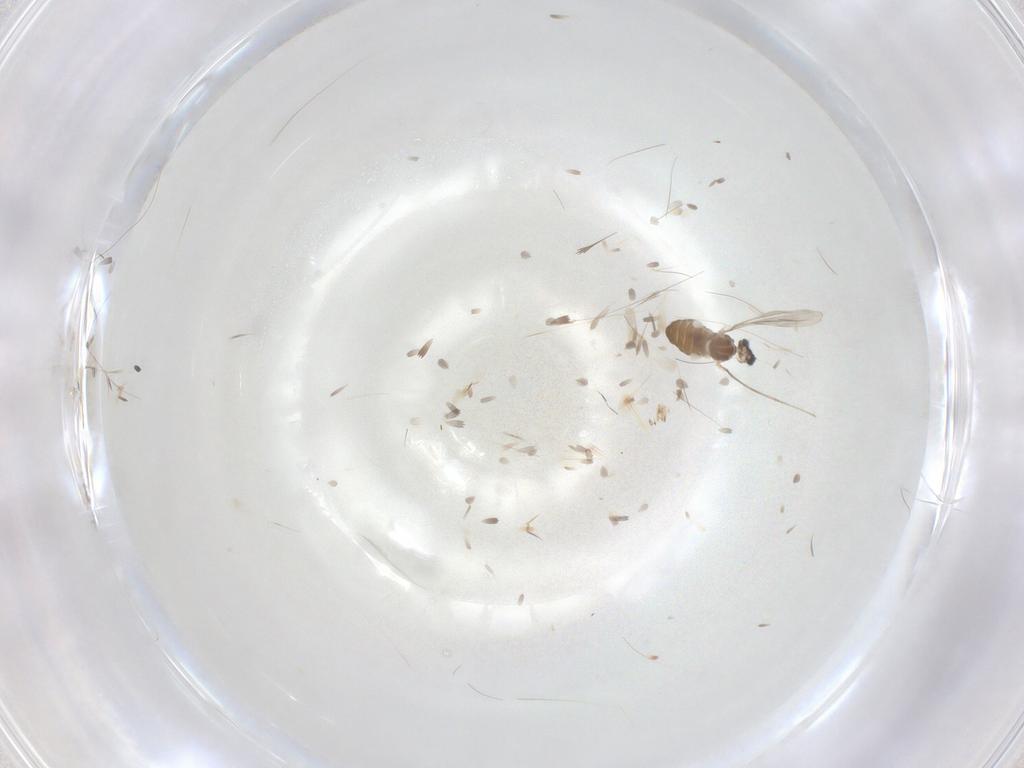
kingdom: Animalia
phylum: Arthropoda
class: Insecta
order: Diptera
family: Cecidomyiidae
